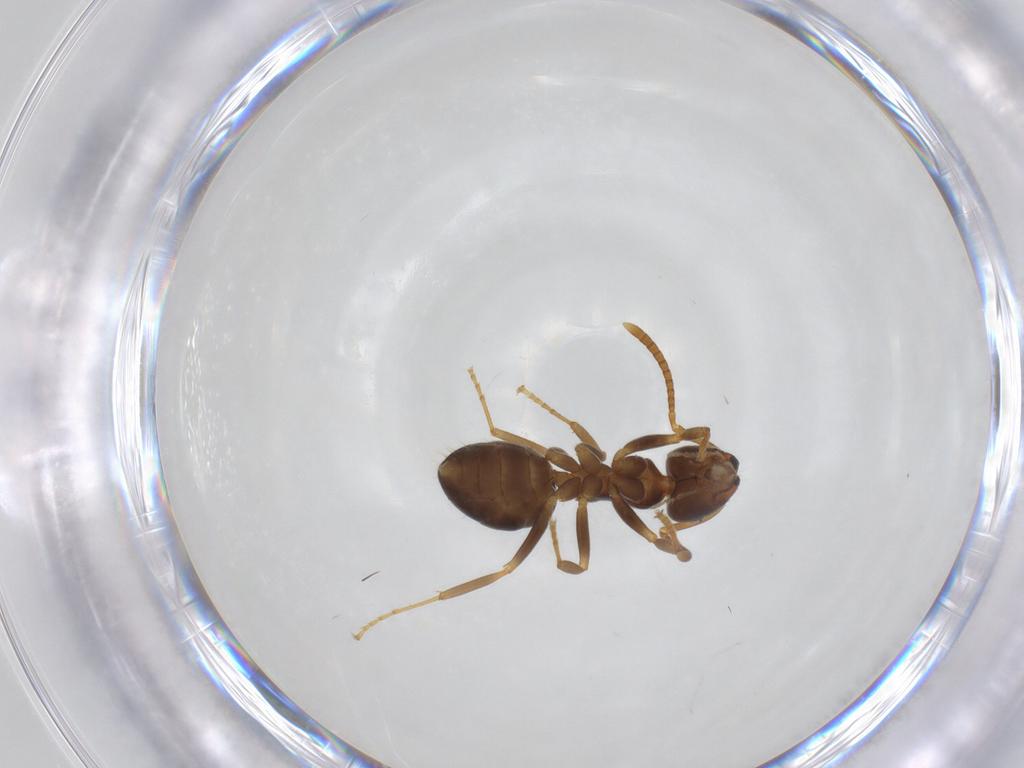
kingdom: Animalia
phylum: Arthropoda
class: Insecta
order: Hymenoptera
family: Formicidae
